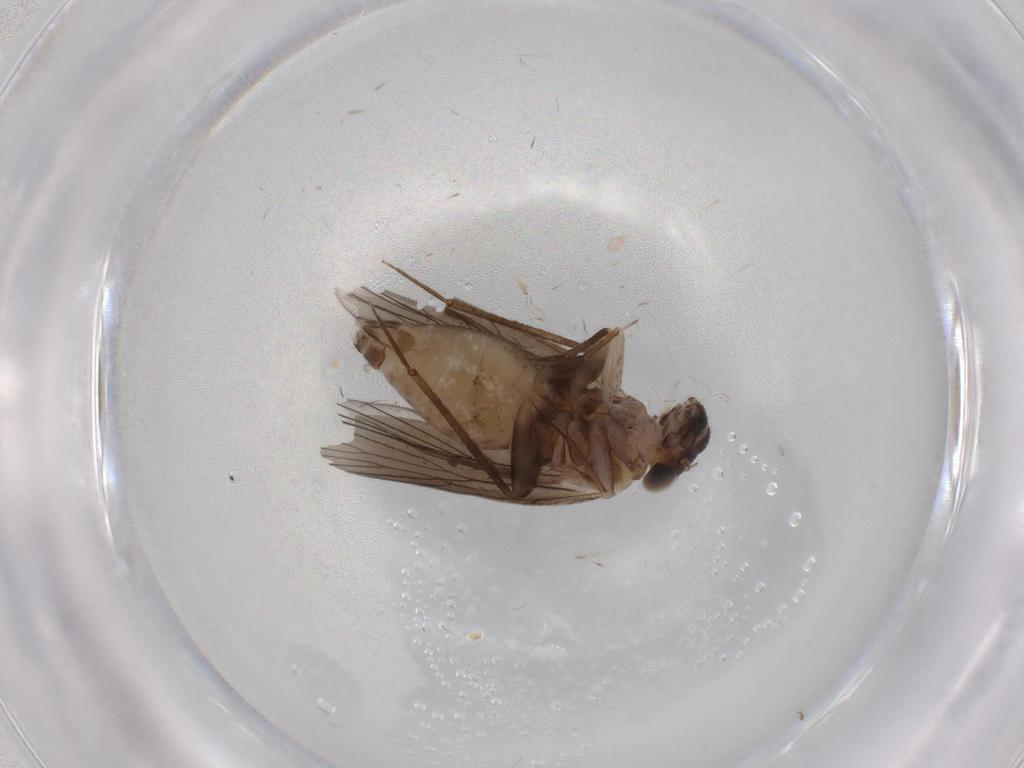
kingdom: Animalia
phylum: Arthropoda
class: Insecta
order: Psocodea
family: Lepidopsocidae
